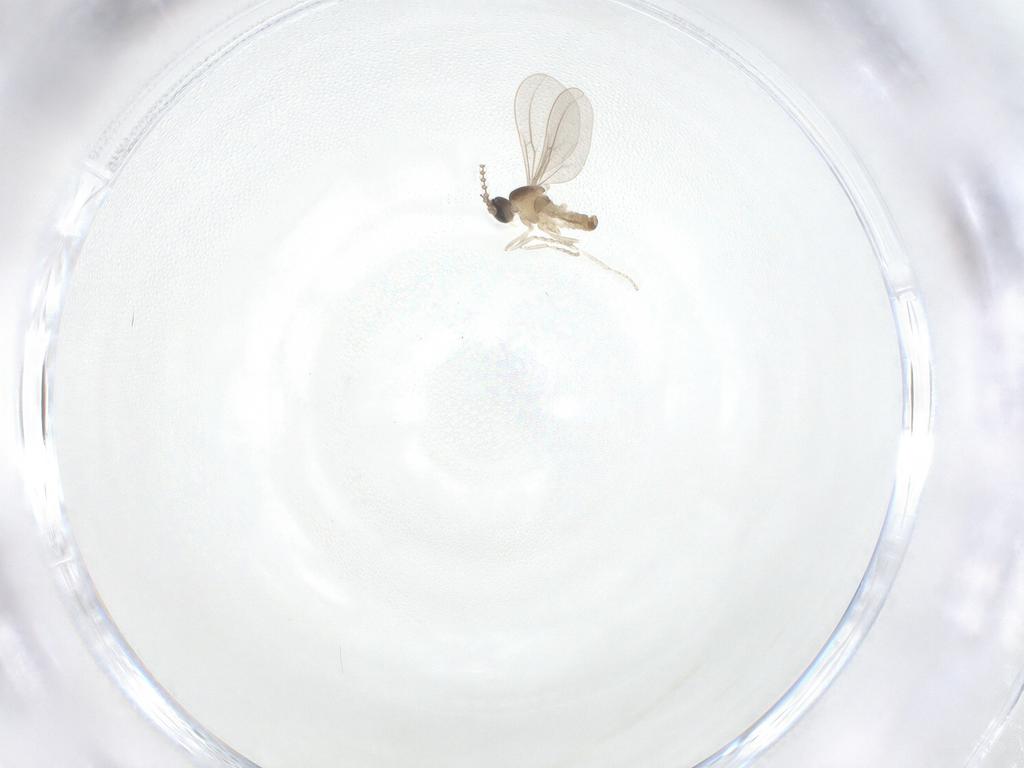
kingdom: Animalia
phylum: Arthropoda
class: Insecta
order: Diptera
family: Cecidomyiidae
